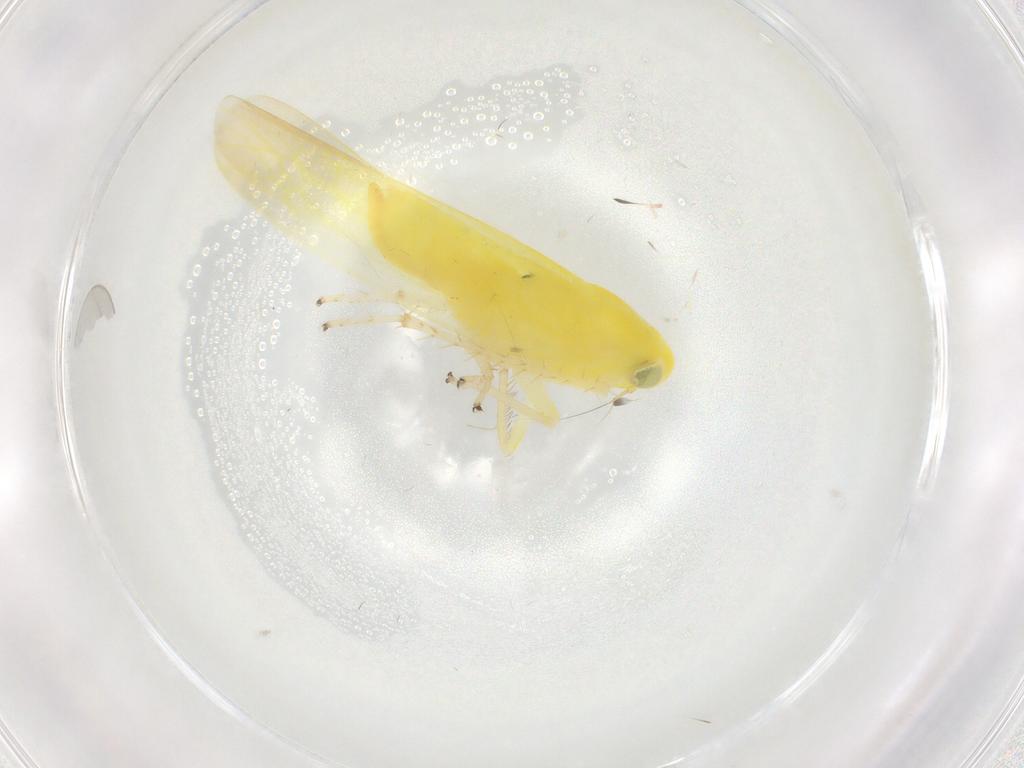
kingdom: Animalia
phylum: Arthropoda
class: Insecta
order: Hemiptera
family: Cicadellidae
